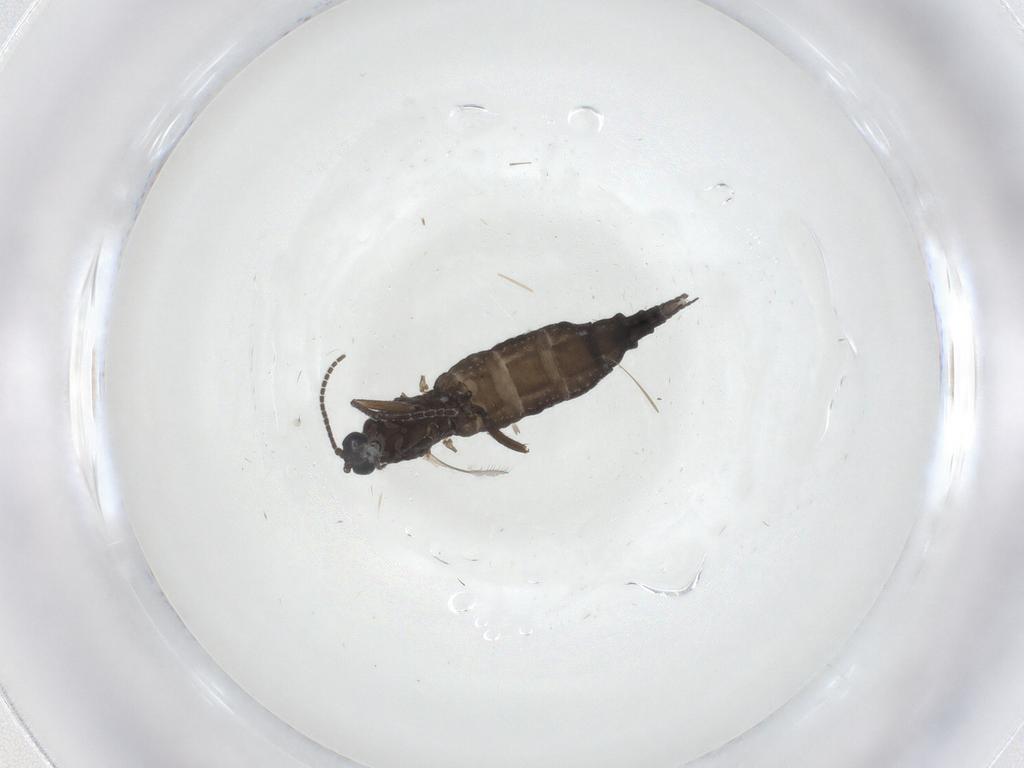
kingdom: Animalia
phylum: Arthropoda
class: Insecta
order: Diptera
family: Sciaridae
